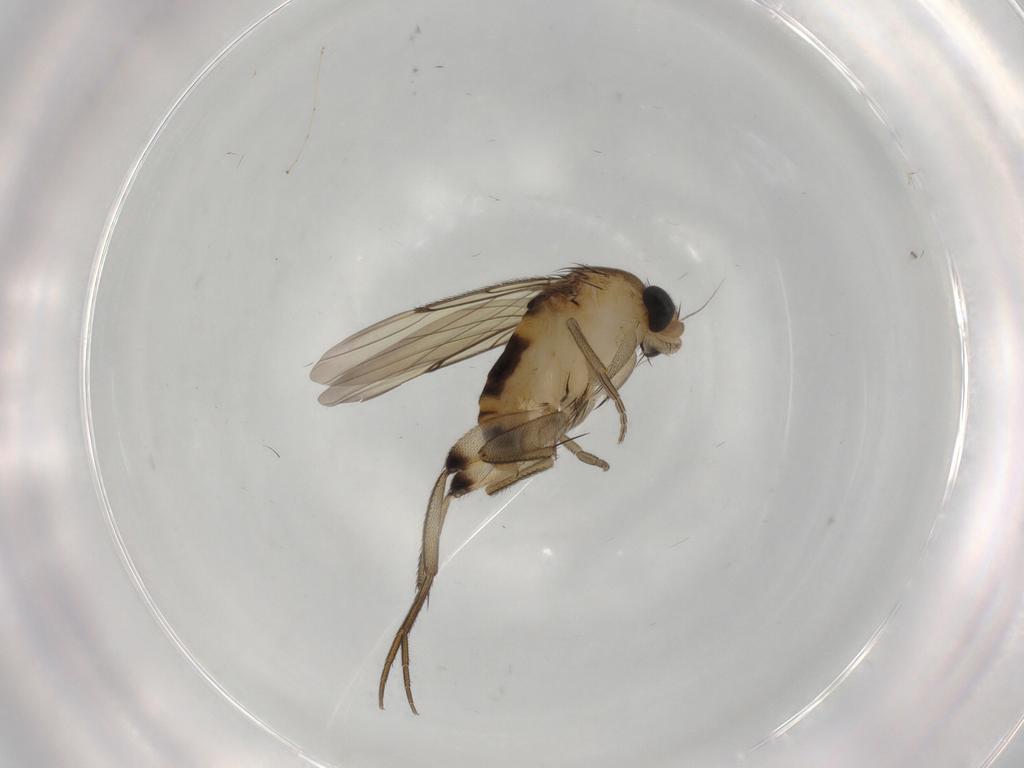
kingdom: Animalia
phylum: Arthropoda
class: Insecta
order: Diptera
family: Phoridae
